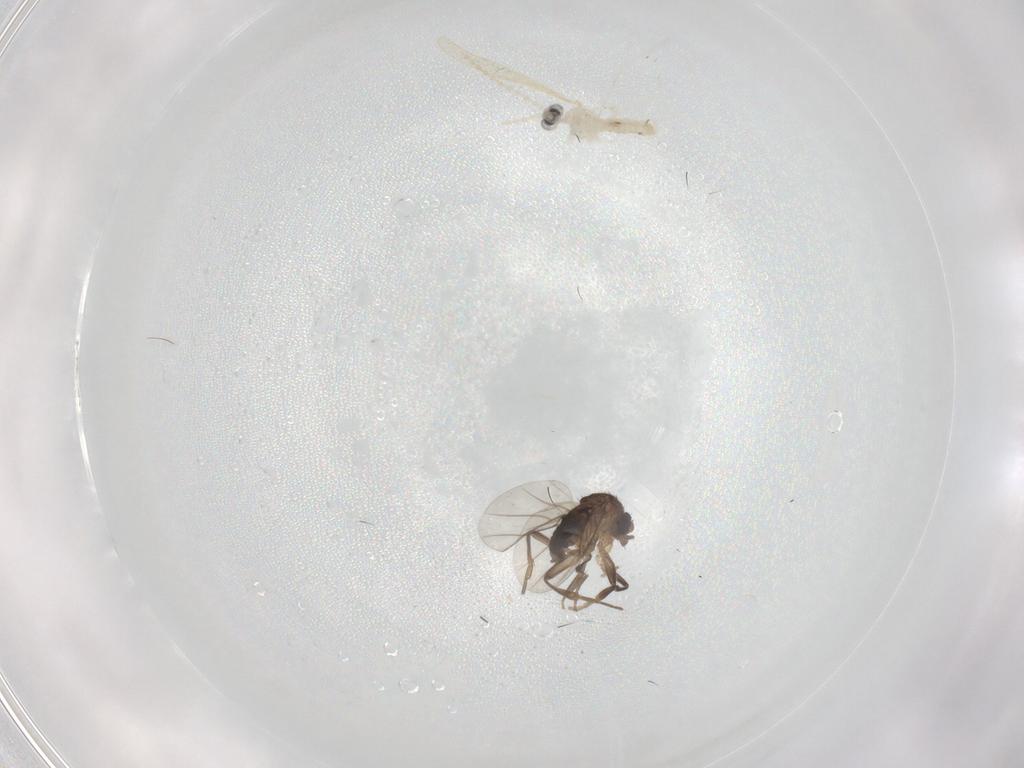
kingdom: Animalia
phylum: Arthropoda
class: Insecta
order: Diptera
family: Phoridae
